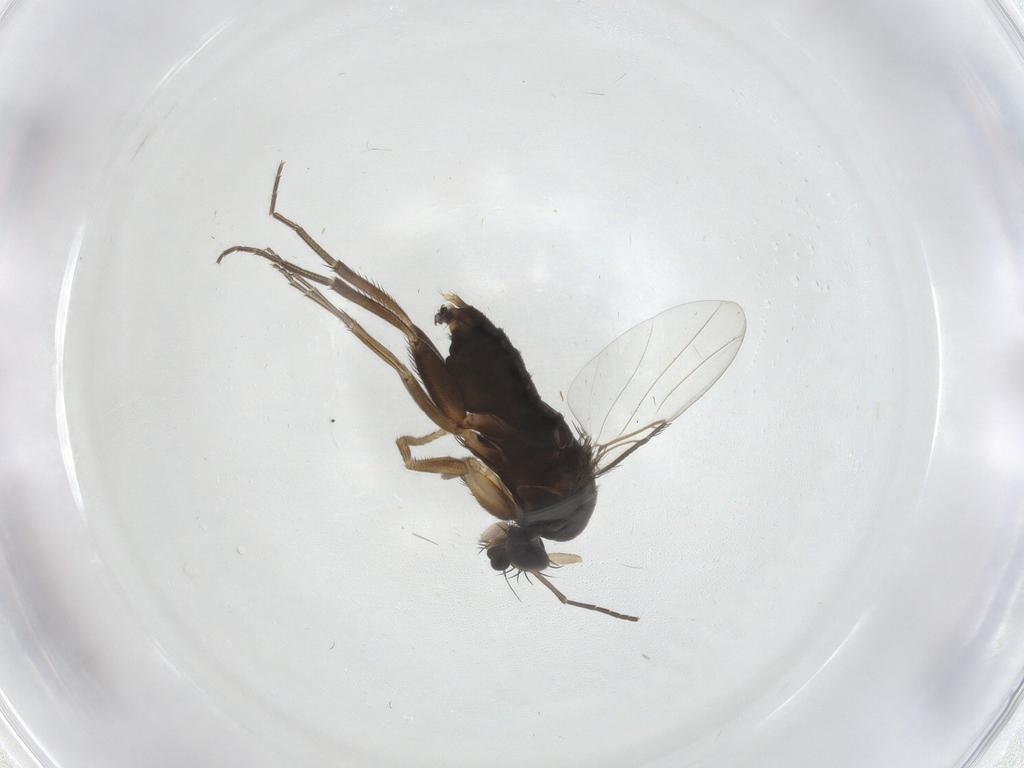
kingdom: Animalia
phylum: Arthropoda
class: Insecta
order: Diptera
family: Phoridae
